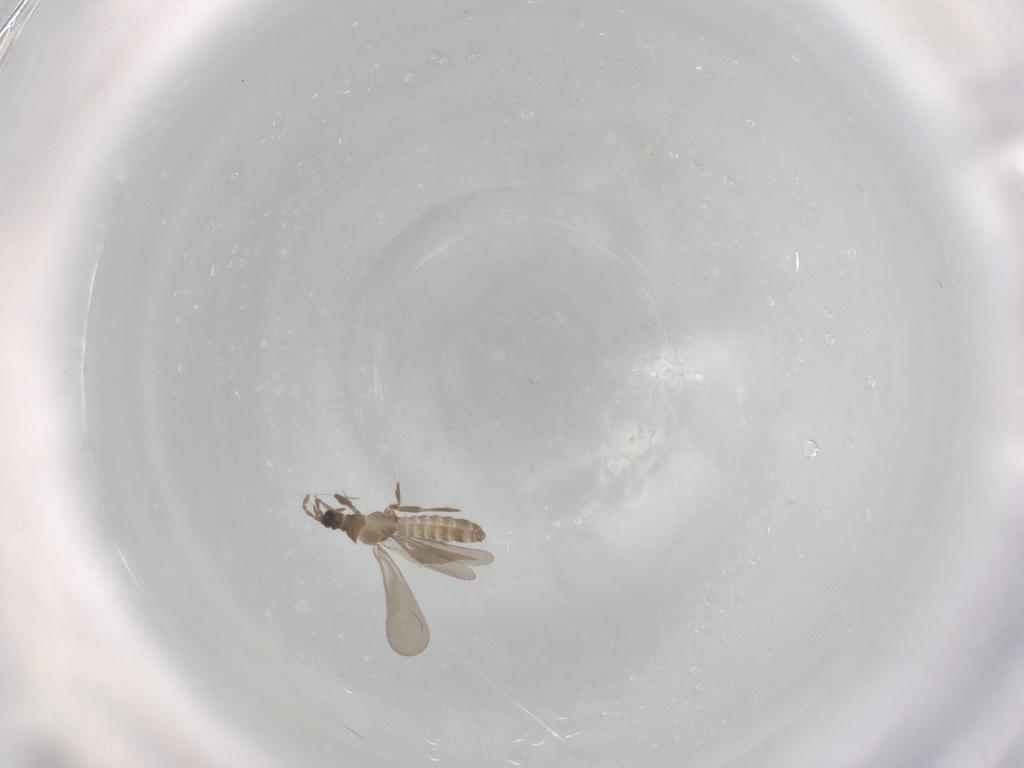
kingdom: Animalia
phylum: Arthropoda
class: Insecta
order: Hemiptera
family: Enicocephalidae
